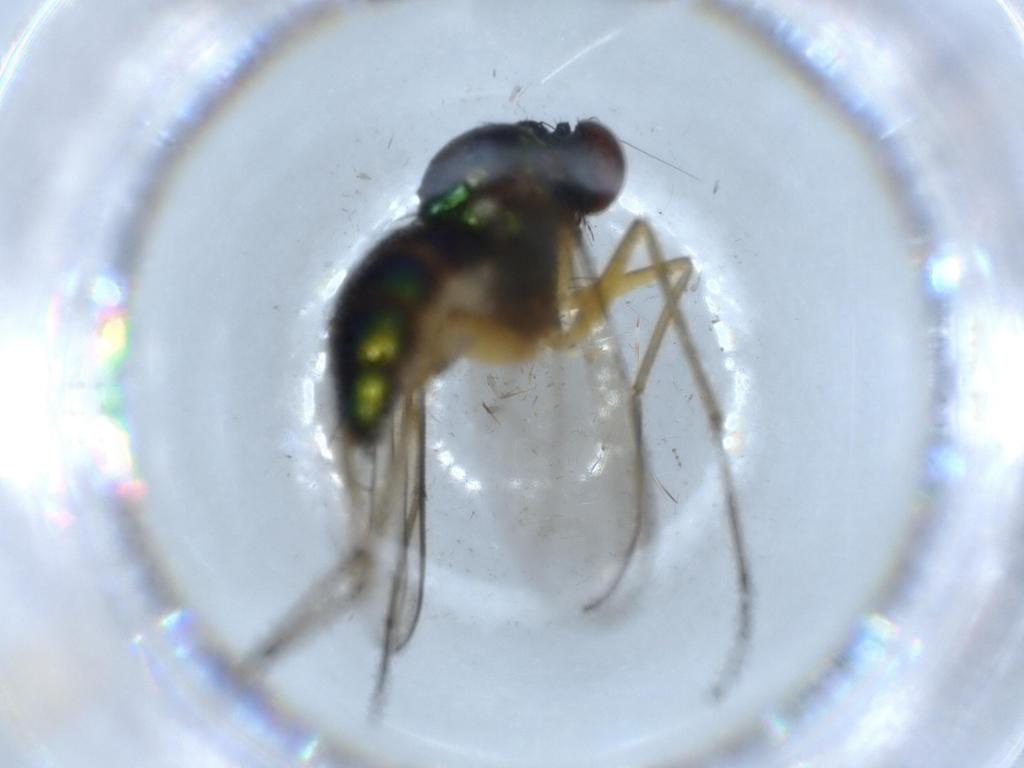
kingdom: Animalia
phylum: Arthropoda
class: Insecta
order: Diptera
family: Dolichopodidae
